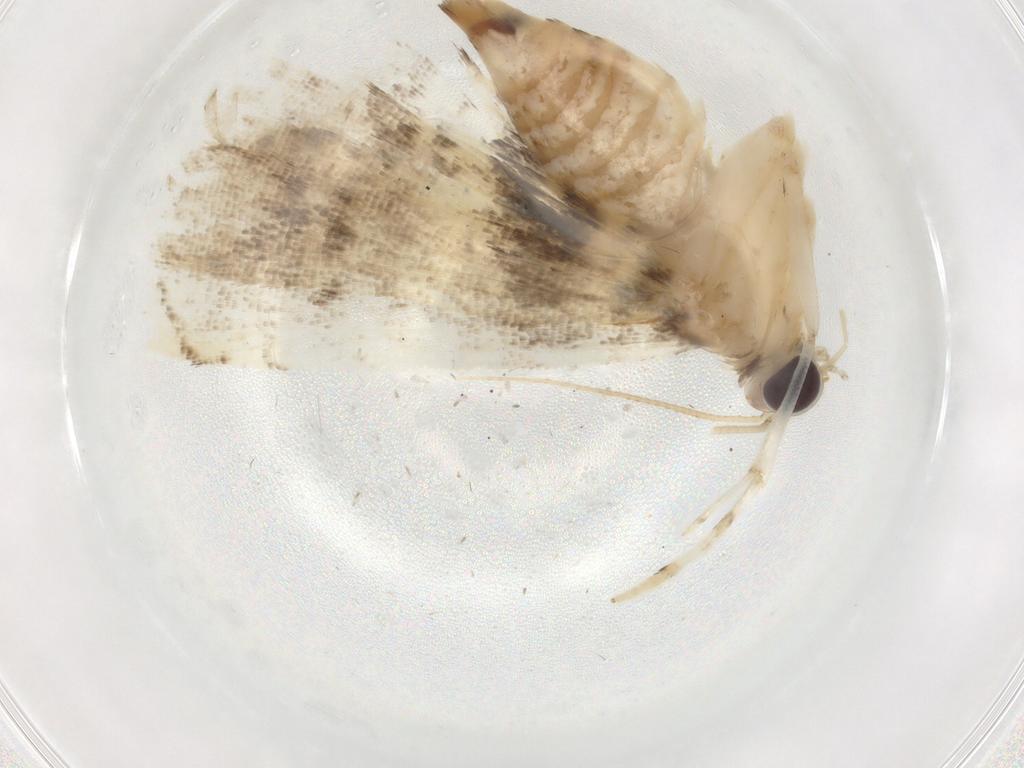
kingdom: Animalia
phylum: Arthropoda
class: Insecta
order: Lepidoptera
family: Crambidae
